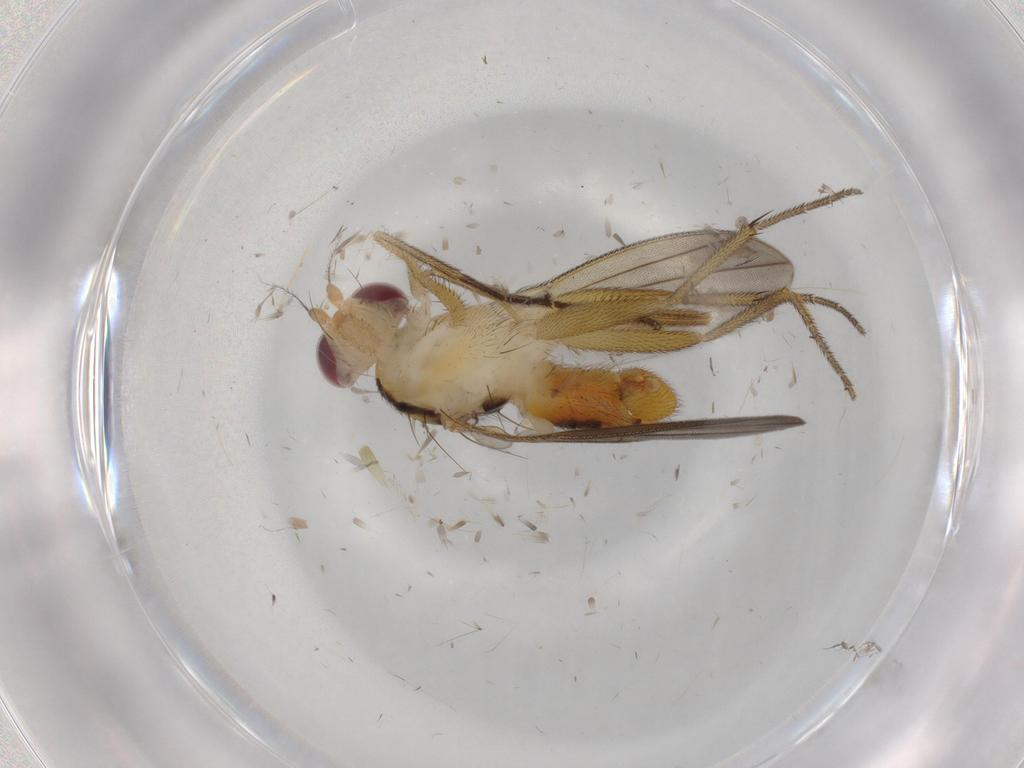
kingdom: Animalia
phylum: Arthropoda
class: Insecta
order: Diptera
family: Clusiidae
